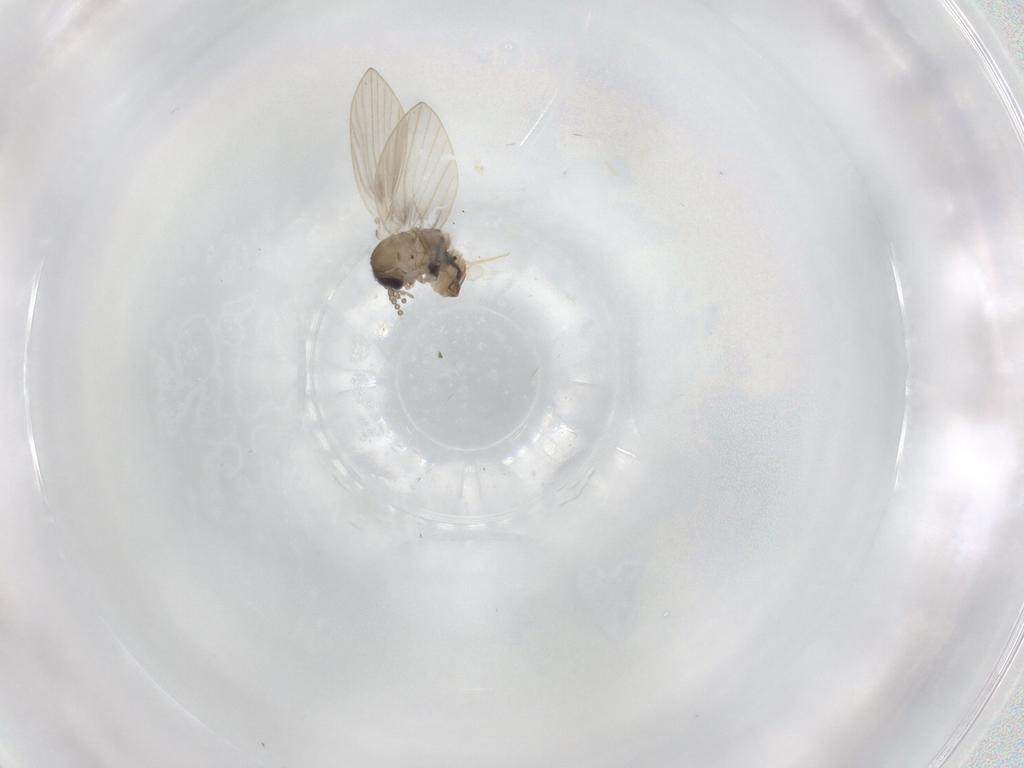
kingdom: Animalia
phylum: Arthropoda
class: Insecta
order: Diptera
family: Psychodidae
